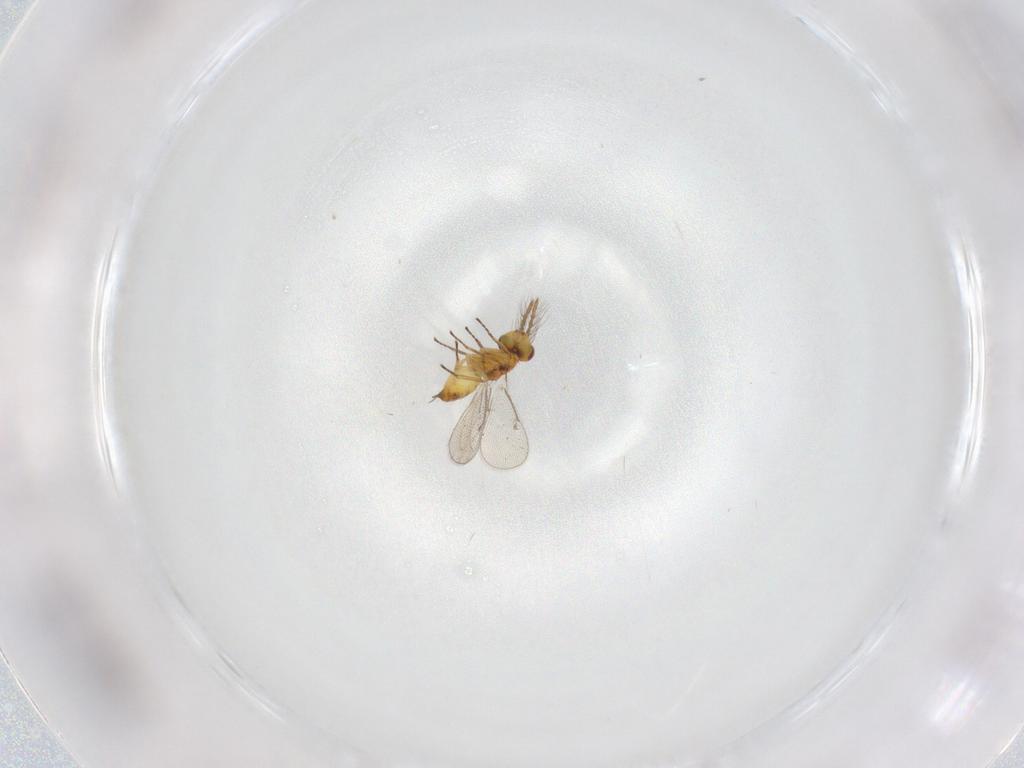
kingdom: Animalia
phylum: Arthropoda
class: Insecta
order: Hymenoptera
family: Eulophidae
